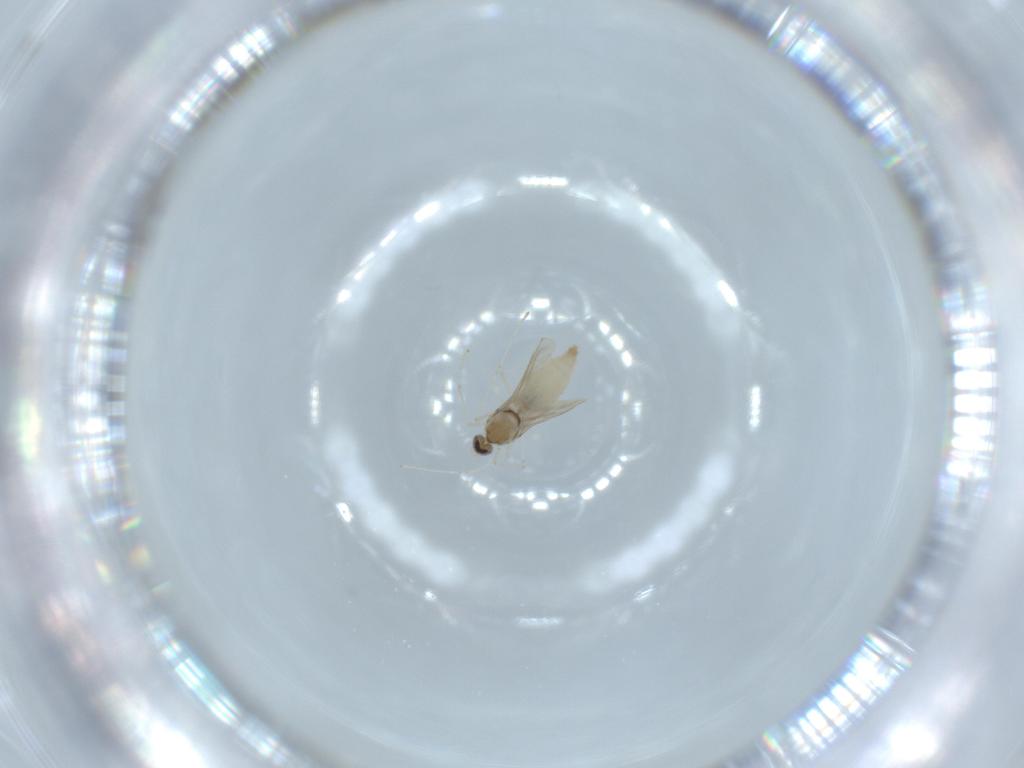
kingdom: Animalia
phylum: Arthropoda
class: Insecta
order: Diptera
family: Cecidomyiidae
